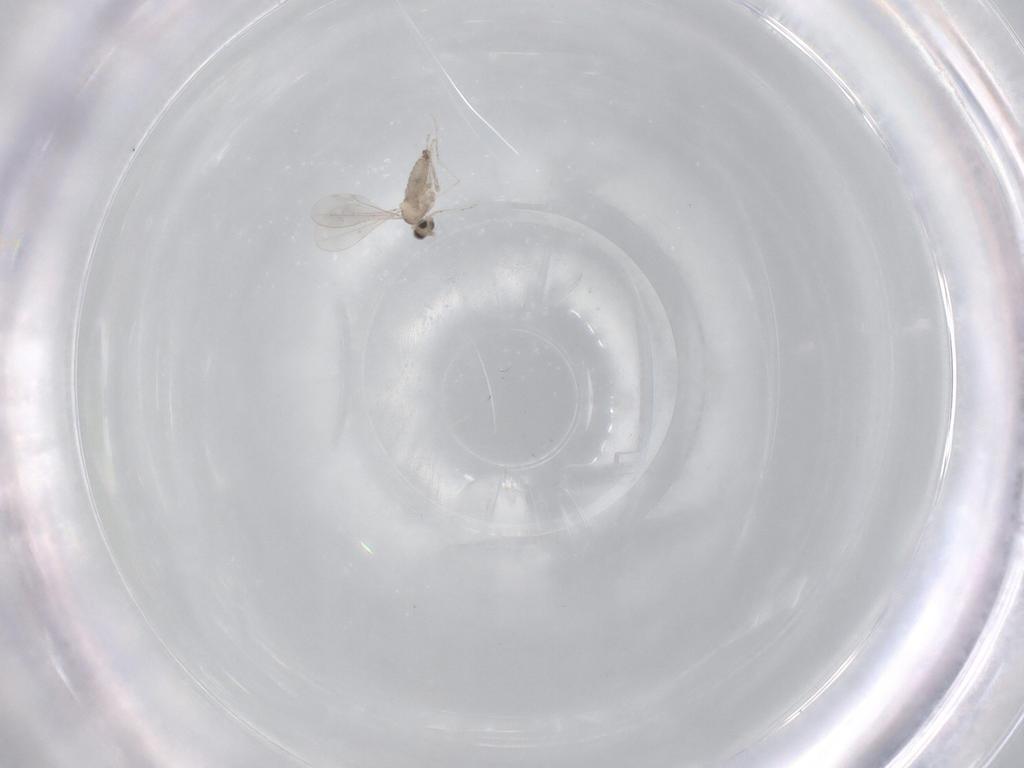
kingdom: Animalia
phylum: Arthropoda
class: Insecta
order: Diptera
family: Cecidomyiidae
